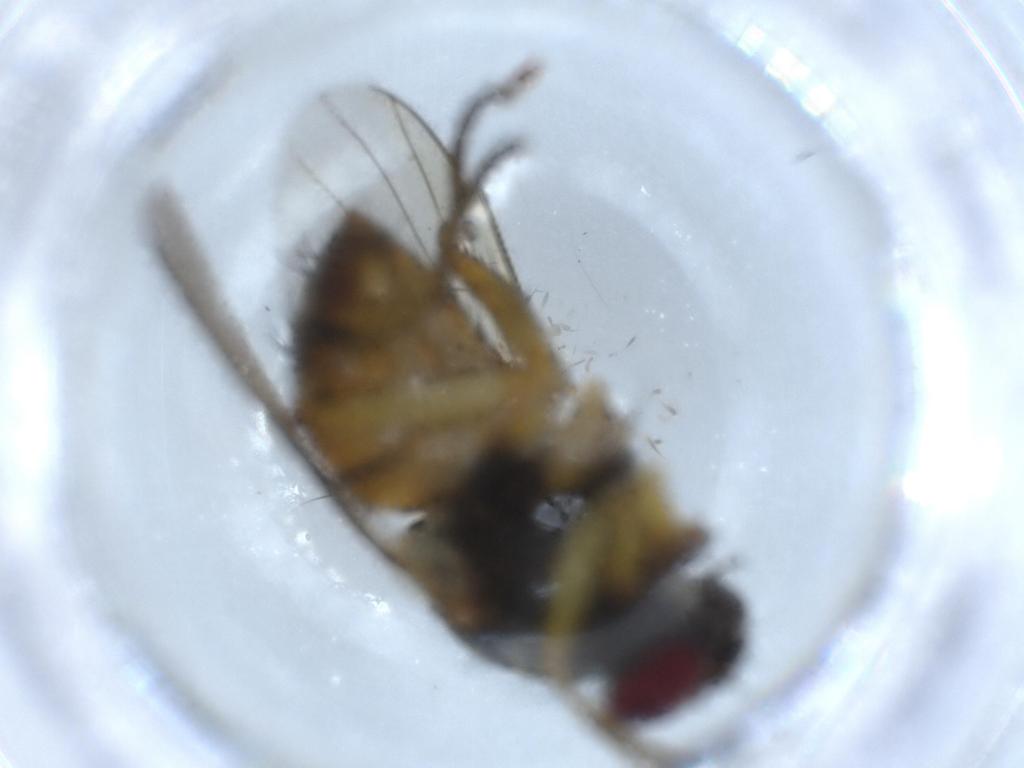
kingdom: Animalia
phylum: Arthropoda
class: Insecta
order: Diptera
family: Muscidae
